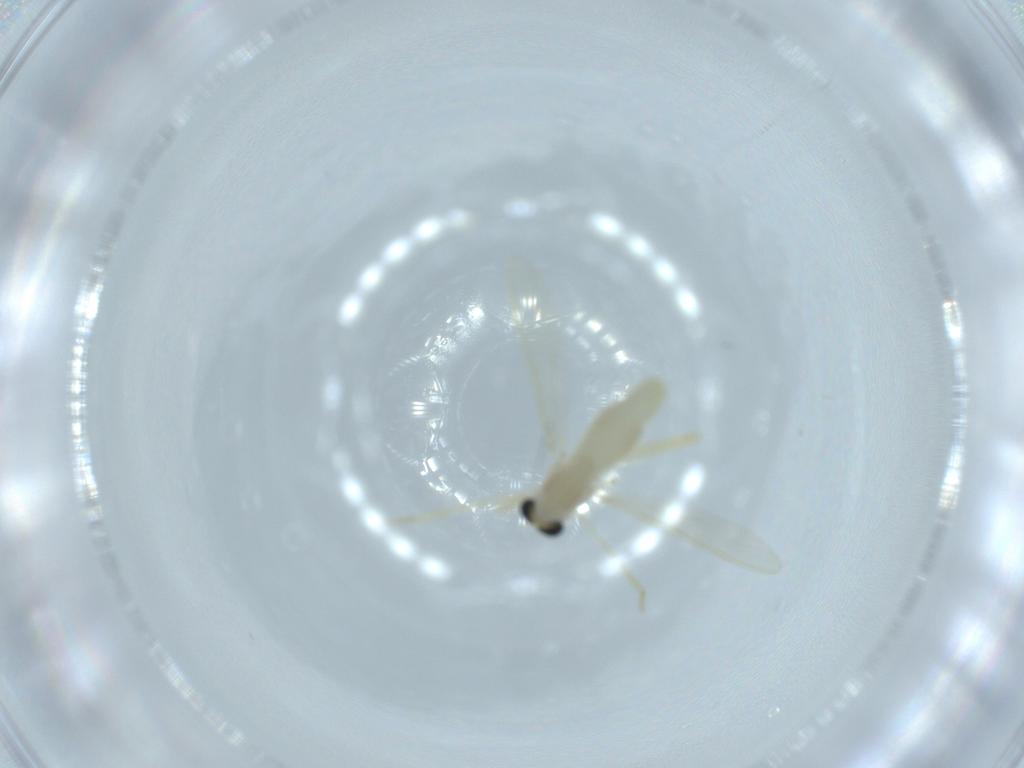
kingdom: Animalia
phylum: Arthropoda
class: Insecta
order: Diptera
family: Chironomidae
